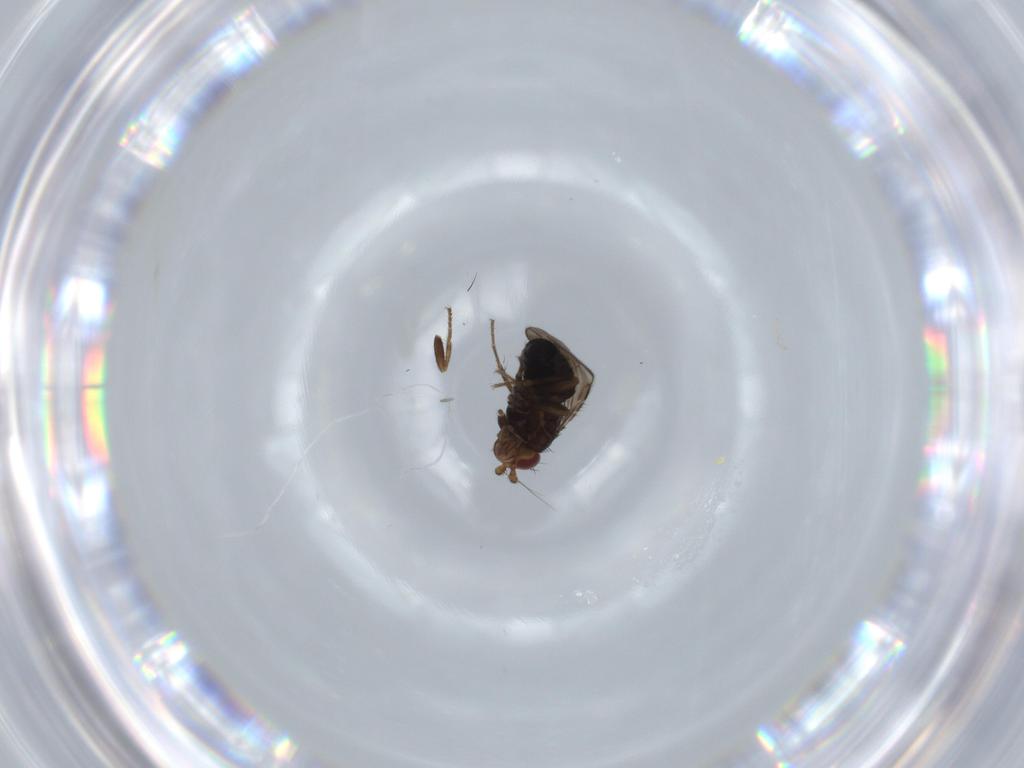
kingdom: Animalia
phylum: Arthropoda
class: Insecta
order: Diptera
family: Sphaeroceridae
